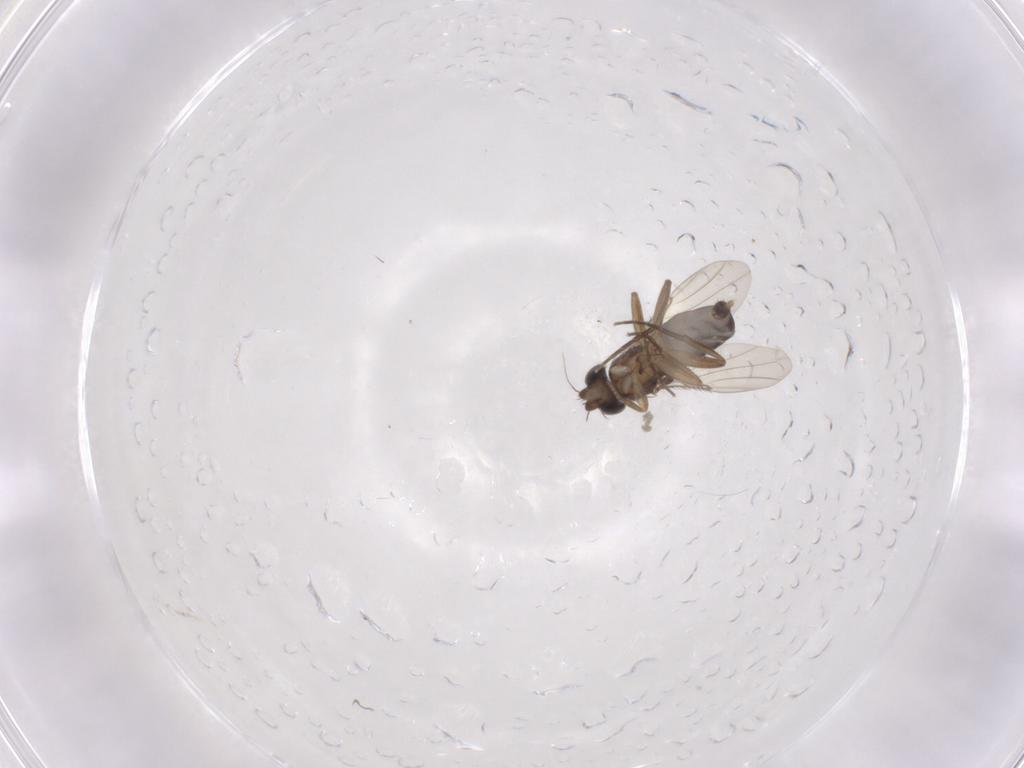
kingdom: Animalia
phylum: Arthropoda
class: Insecta
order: Diptera
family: Phoridae
